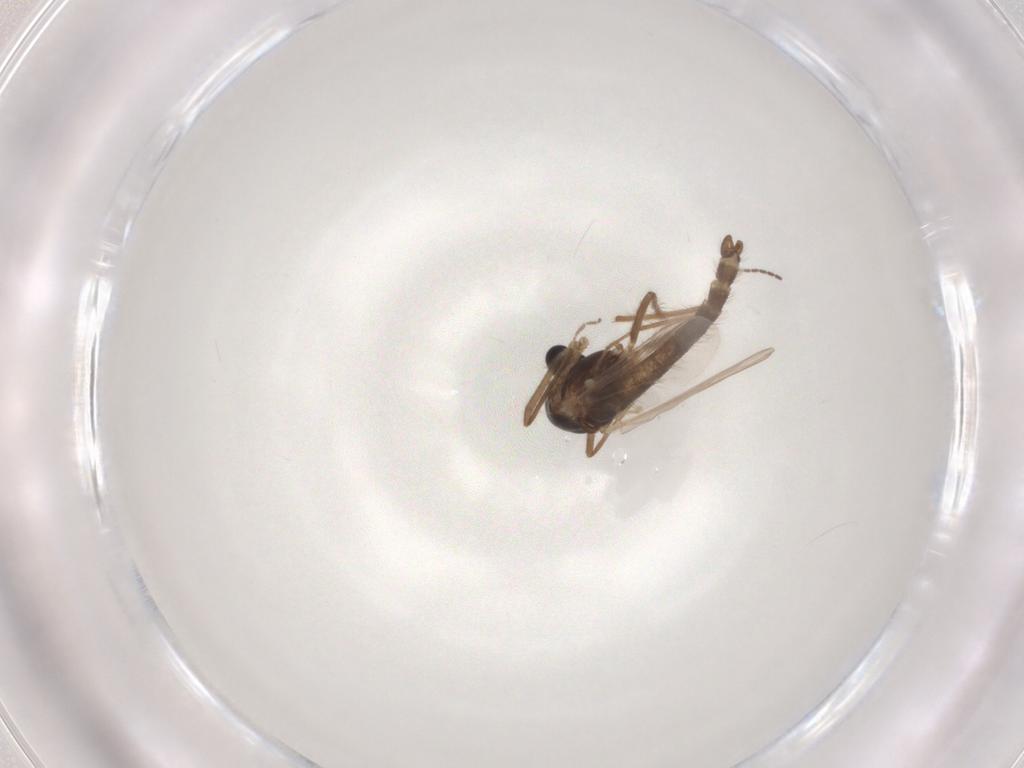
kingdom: Animalia
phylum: Arthropoda
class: Insecta
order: Diptera
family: Chironomidae
